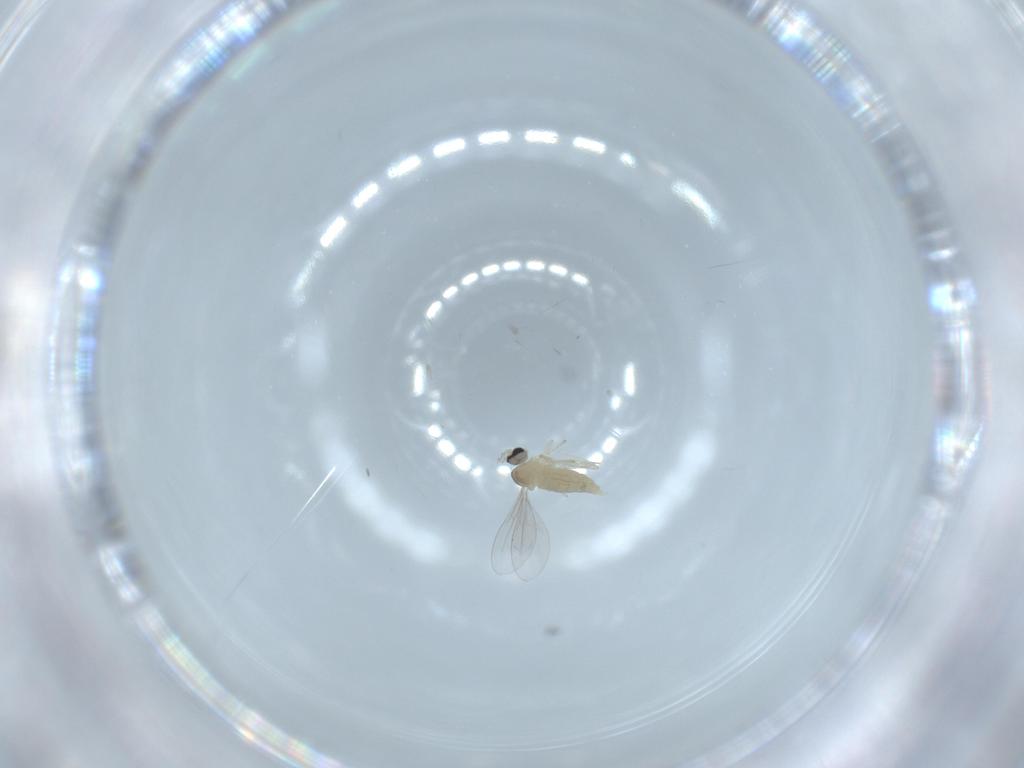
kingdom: Animalia
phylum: Arthropoda
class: Insecta
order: Diptera
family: Cecidomyiidae
